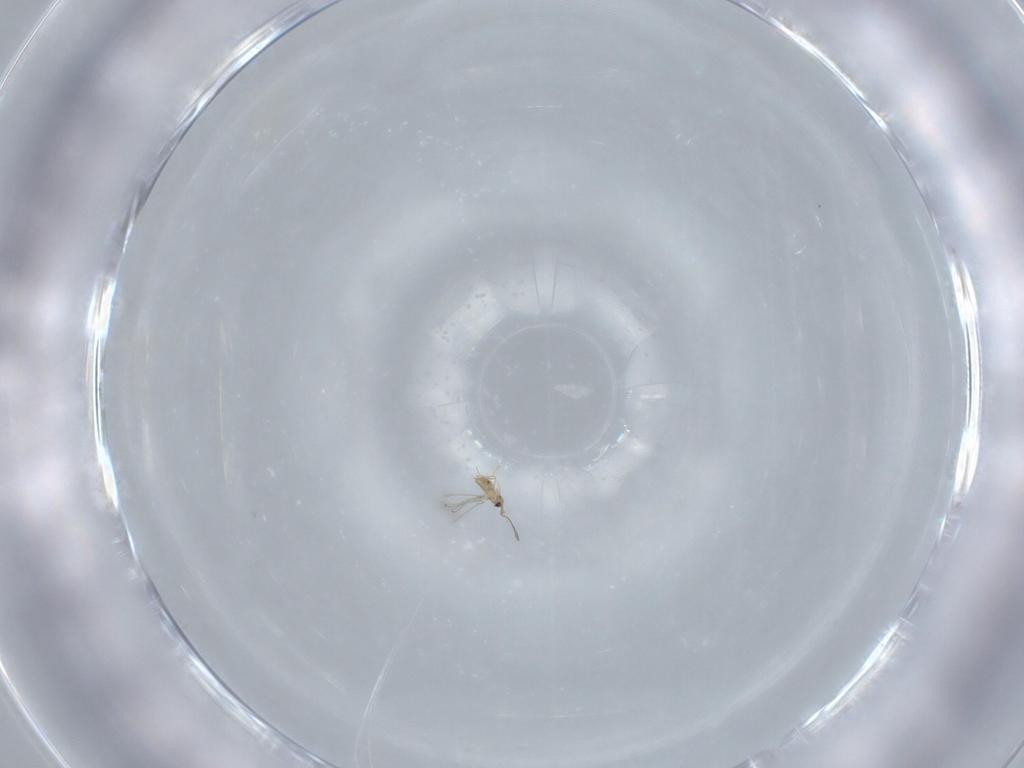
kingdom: Animalia
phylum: Arthropoda
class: Insecta
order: Hymenoptera
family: Mymaridae
